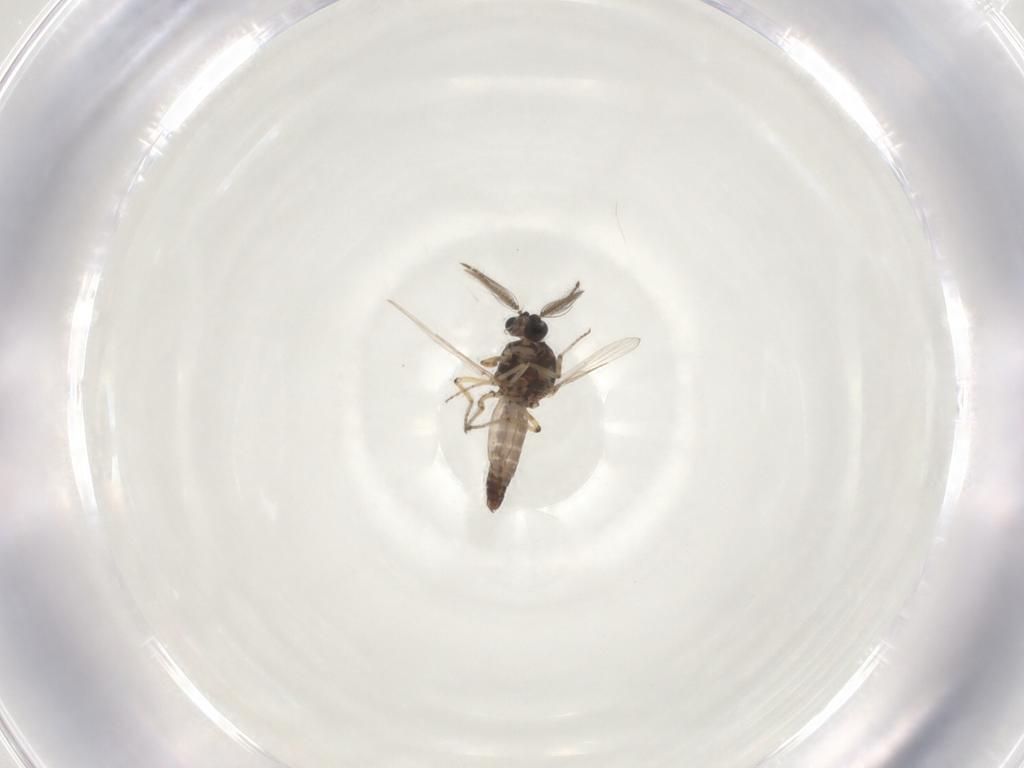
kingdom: Animalia
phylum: Arthropoda
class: Insecta
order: Diptera
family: Ceratopogonidae
